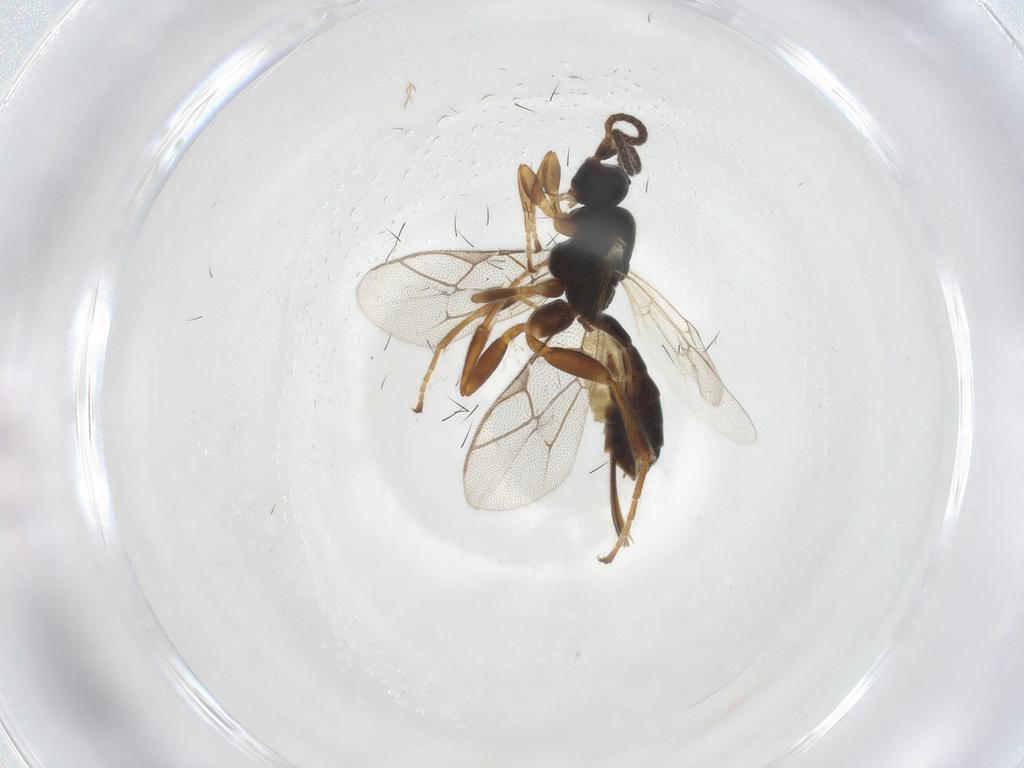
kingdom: Animalia
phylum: Arthropoda
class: Insecta
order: Hymenoptera
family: Ichneumonidae
